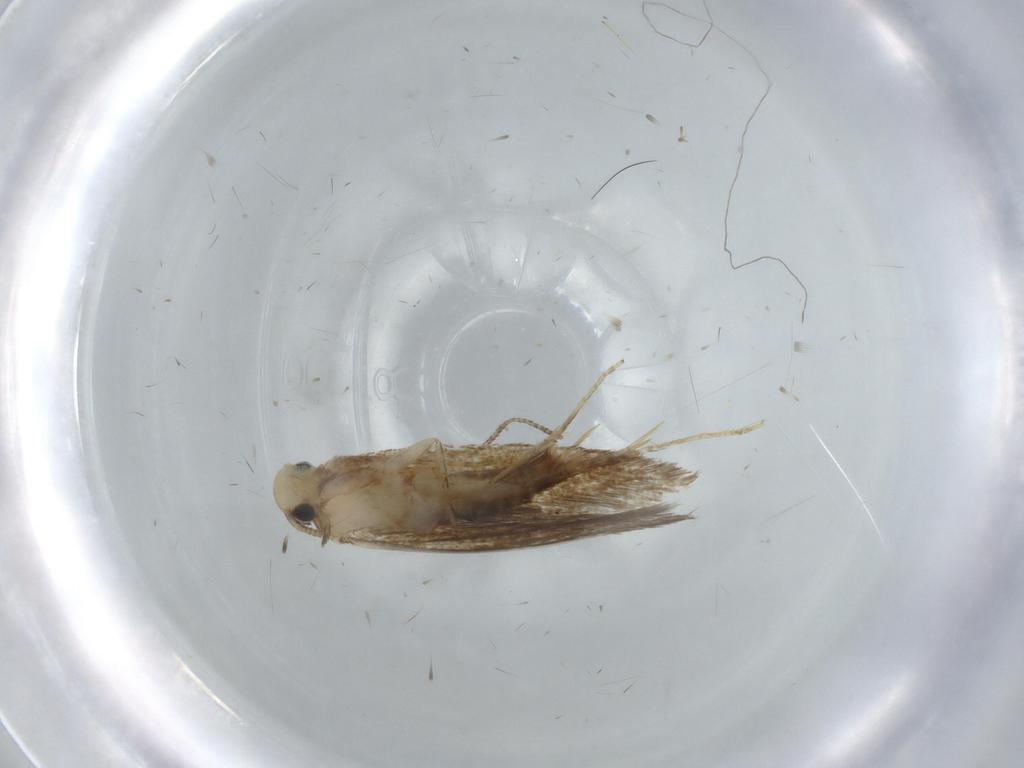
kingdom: Animalia
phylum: Arthropoda
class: Insecta
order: Lepidoptera
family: Tineidae
